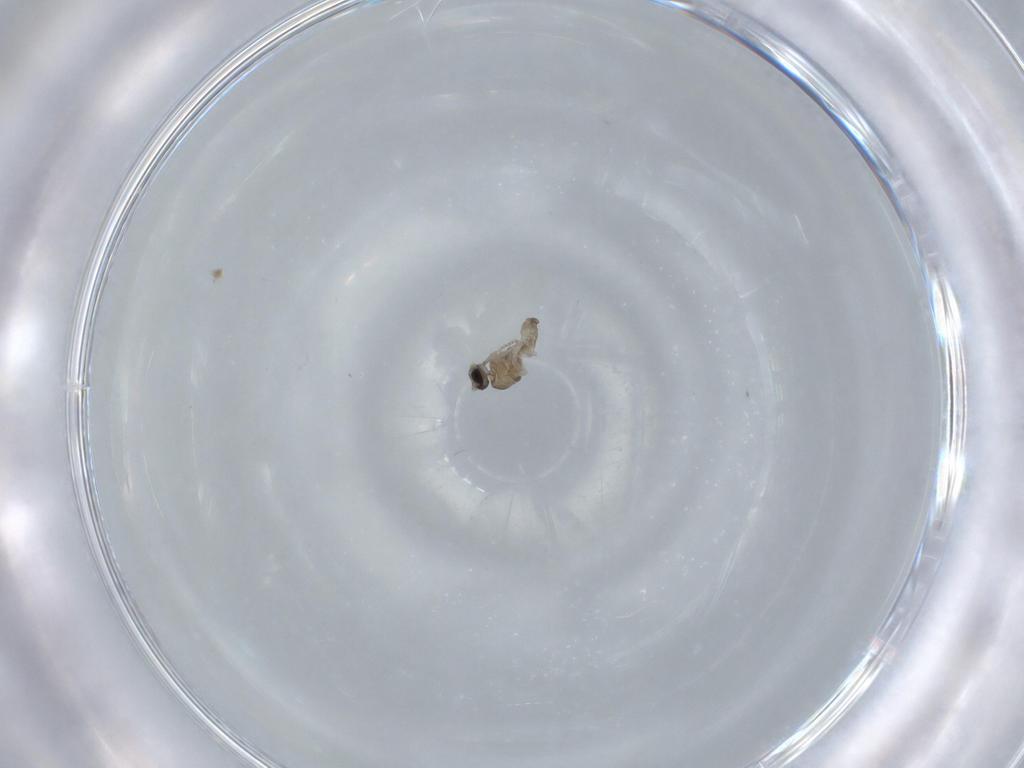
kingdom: Animalia
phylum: Arthropoda
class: Insecta
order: Diptera
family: Cecidomyiidae
